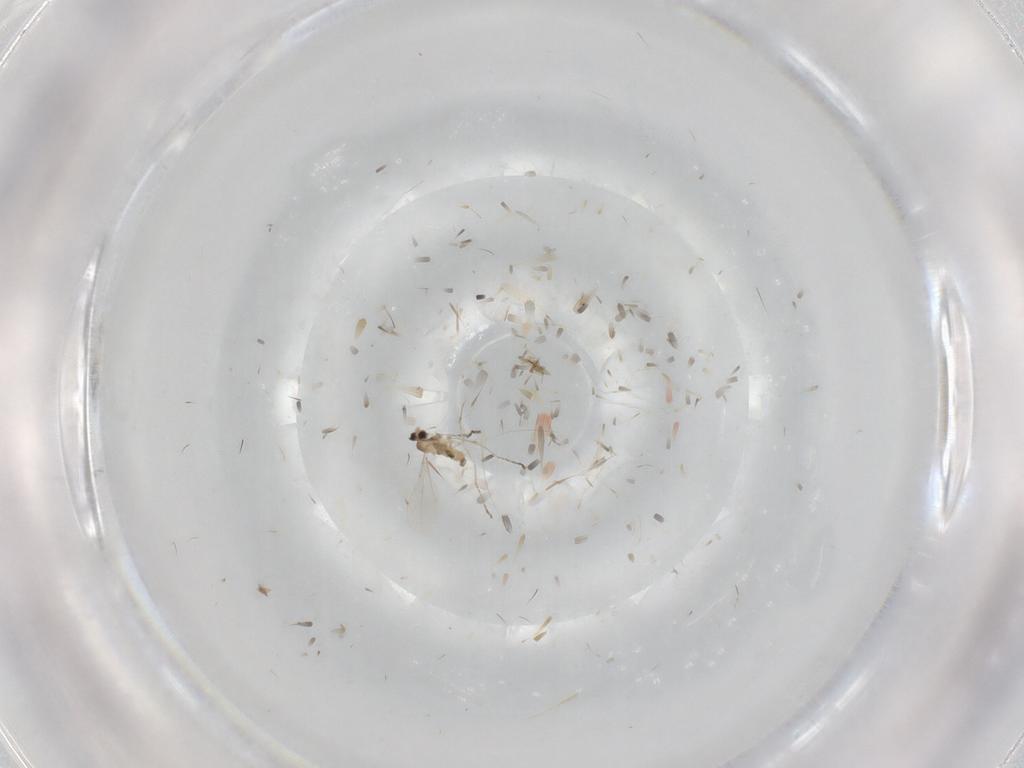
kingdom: Animalia
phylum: Arthropoda
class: Insecta
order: Diptera
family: Cecidomyiidae
